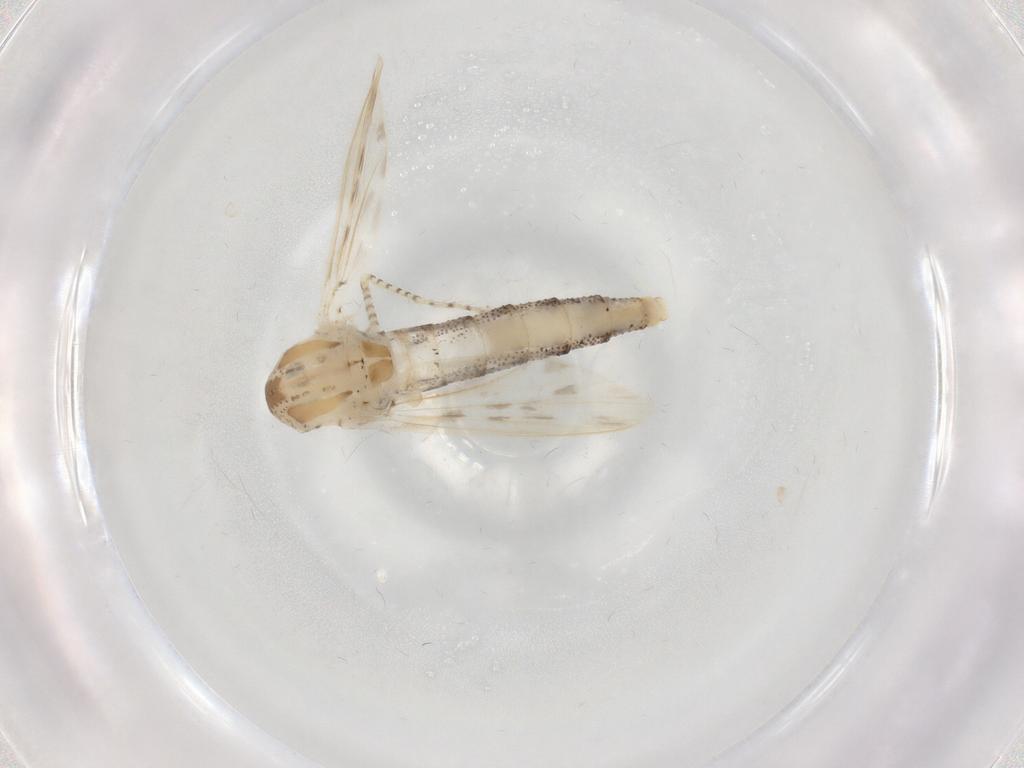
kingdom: Animalia
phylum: Arthropoda
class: Insecta
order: Diptera
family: Chaoboridae
